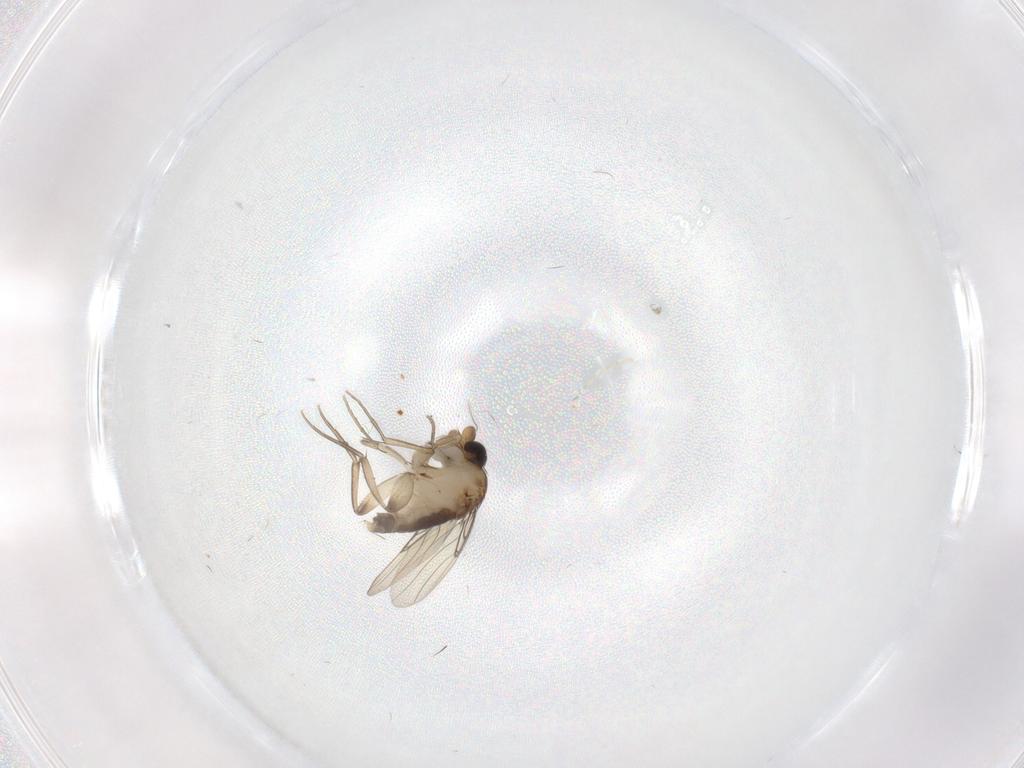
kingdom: Animalia
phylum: Arthropoda
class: Insecta
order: Diptera
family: Phoridae
